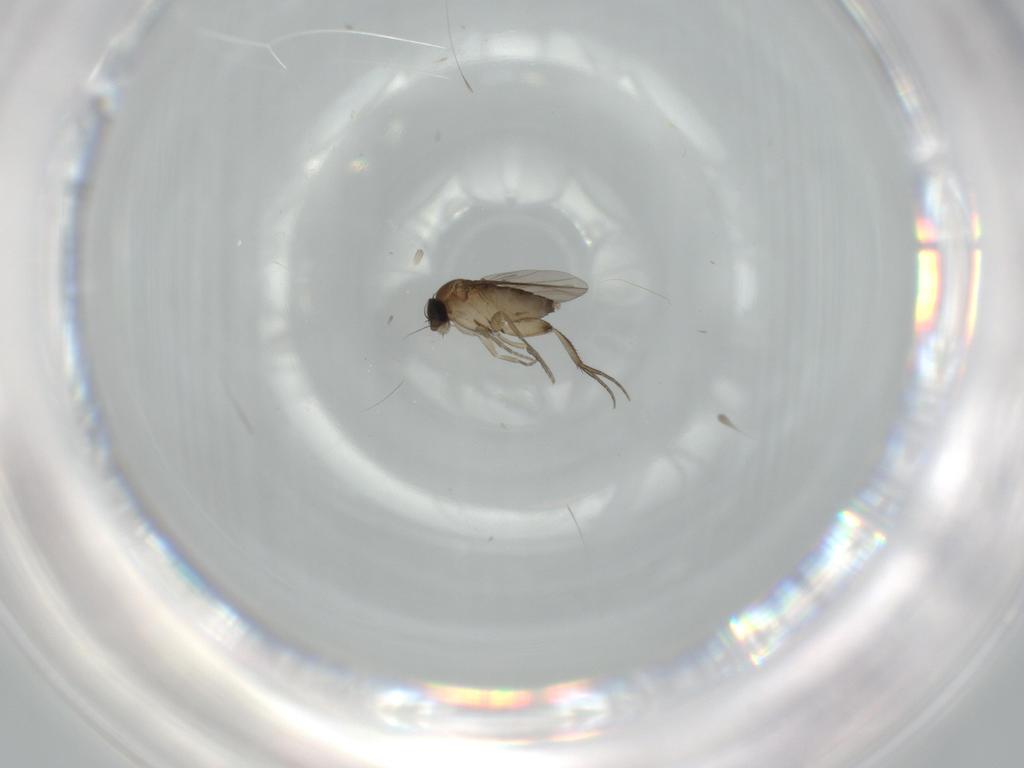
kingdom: Animalia
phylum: Arthropoda
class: Insecta
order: Diptera
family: Phoridae
